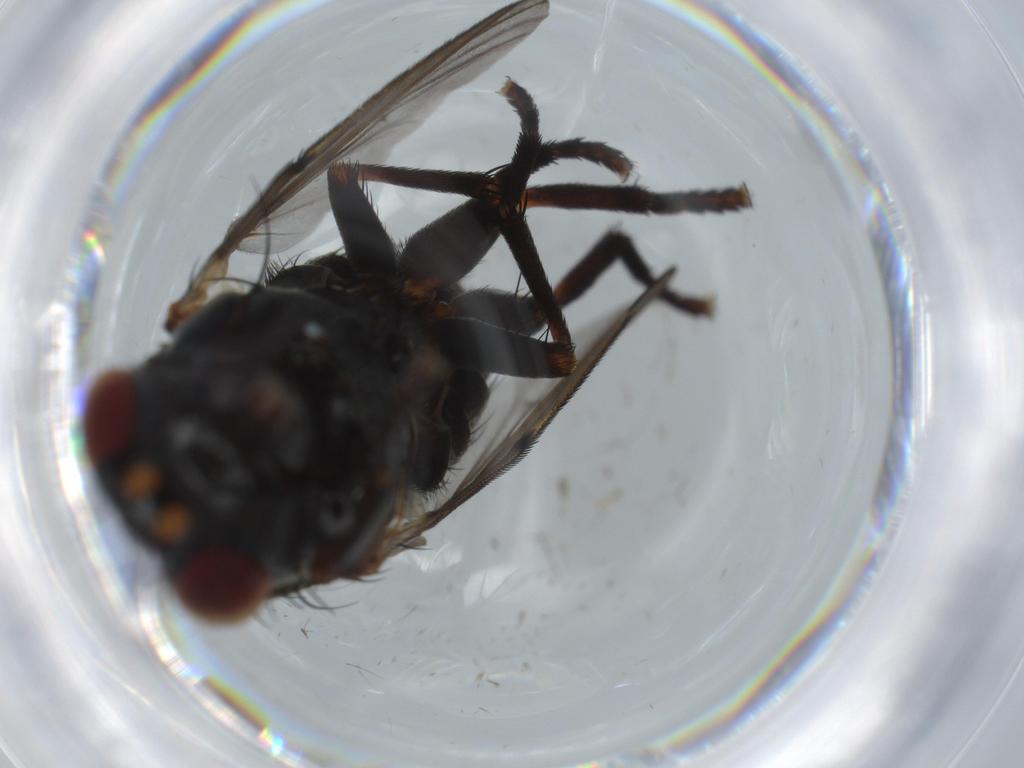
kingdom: Animalia
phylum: Arthropoda
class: Insecta
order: Diptera
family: Sciaridae
